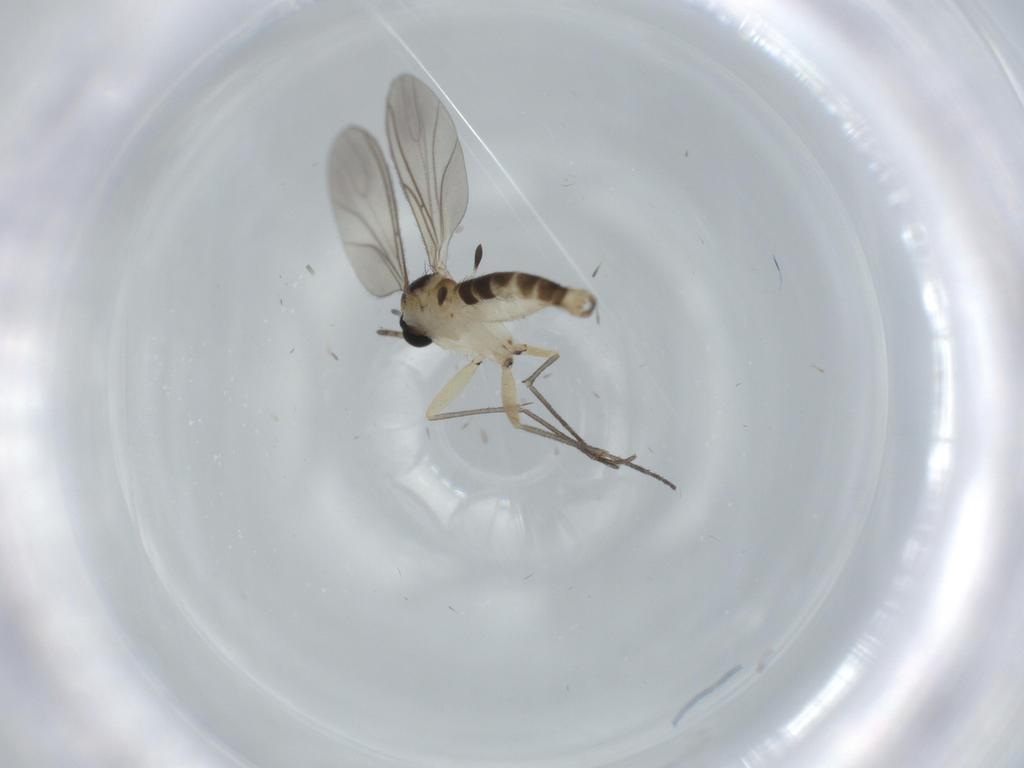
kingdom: Animalia
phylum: Arthropoda
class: Insecta
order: Diptera
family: Sciaridae
